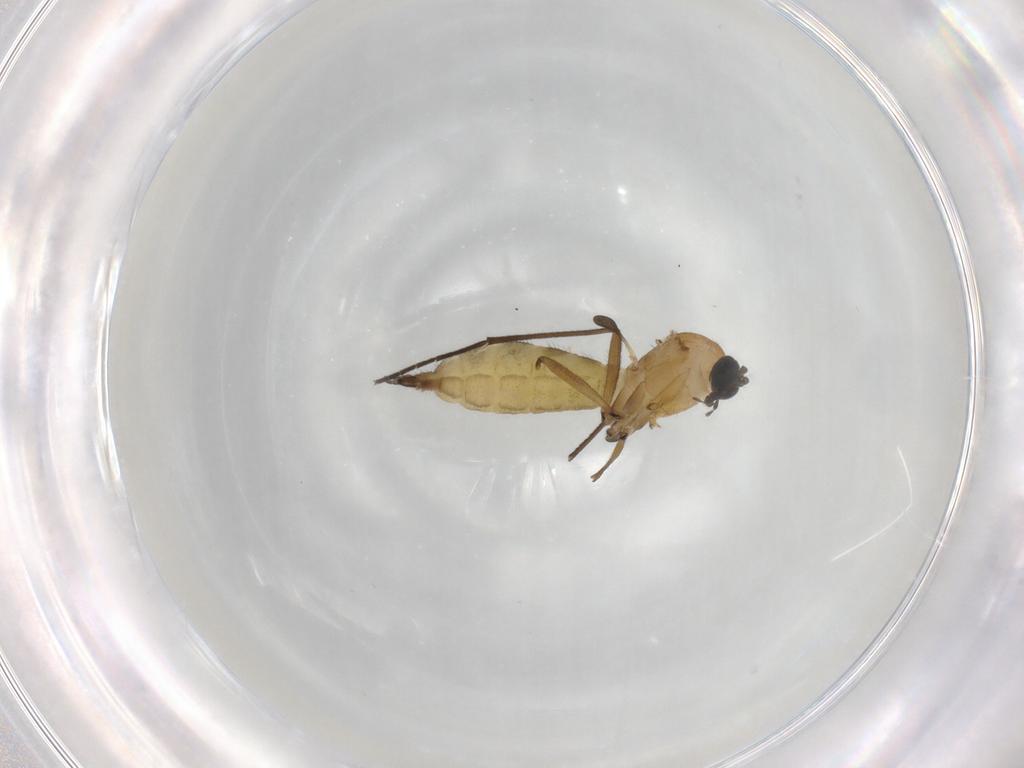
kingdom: Animalia
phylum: Arthropoda
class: Insecta
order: Diptera
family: Sciaridae
